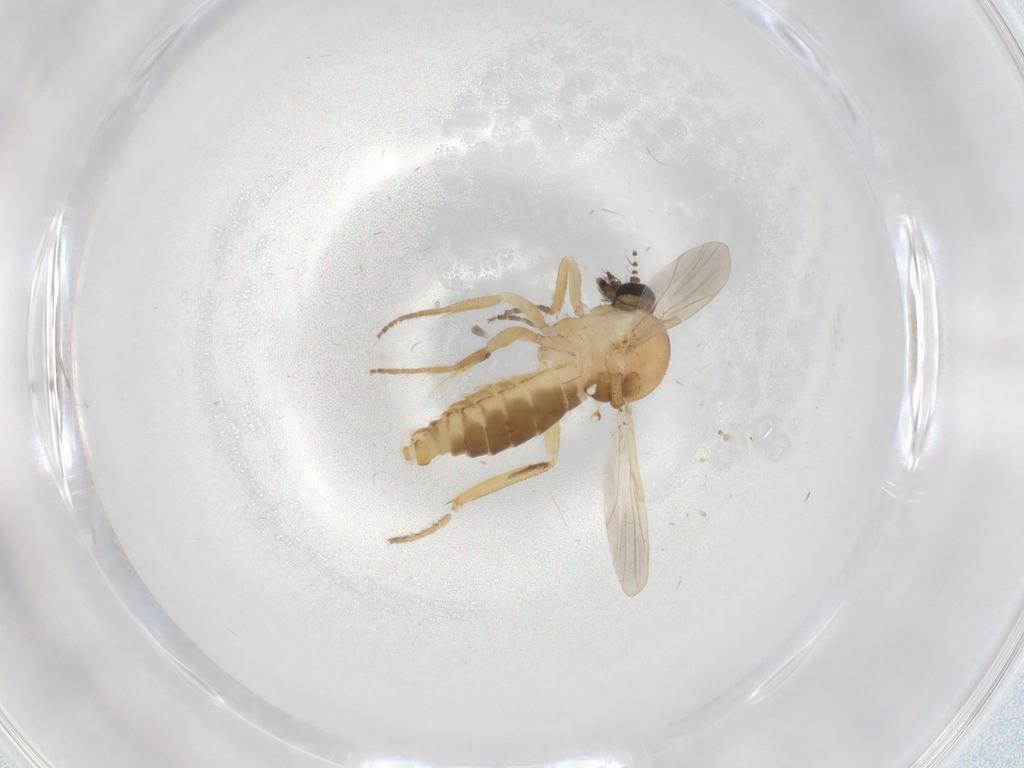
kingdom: Animalia
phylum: Arthropoda
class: Insecta
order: Diptera
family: Ceratopogonidae
